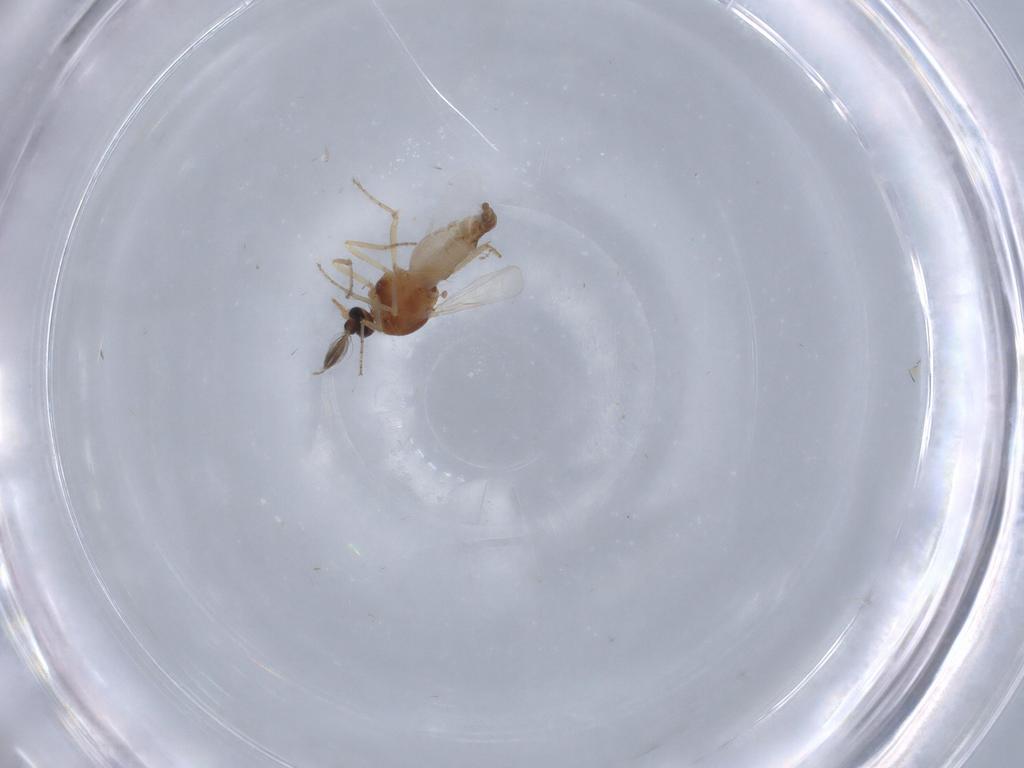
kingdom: Animalia
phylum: Arthropoda
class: Insecta
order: Diptera
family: Ceratopogonidae
